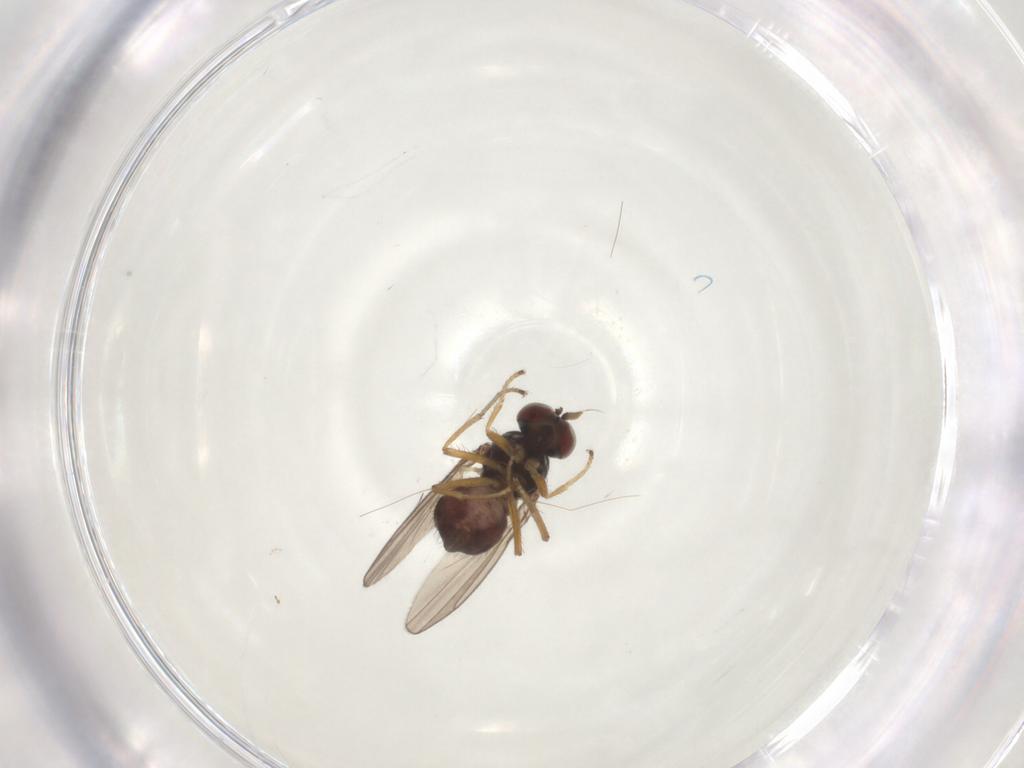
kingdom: Animalia
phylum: Arthropoda
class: Insecta
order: Diptera
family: Ephydridae
